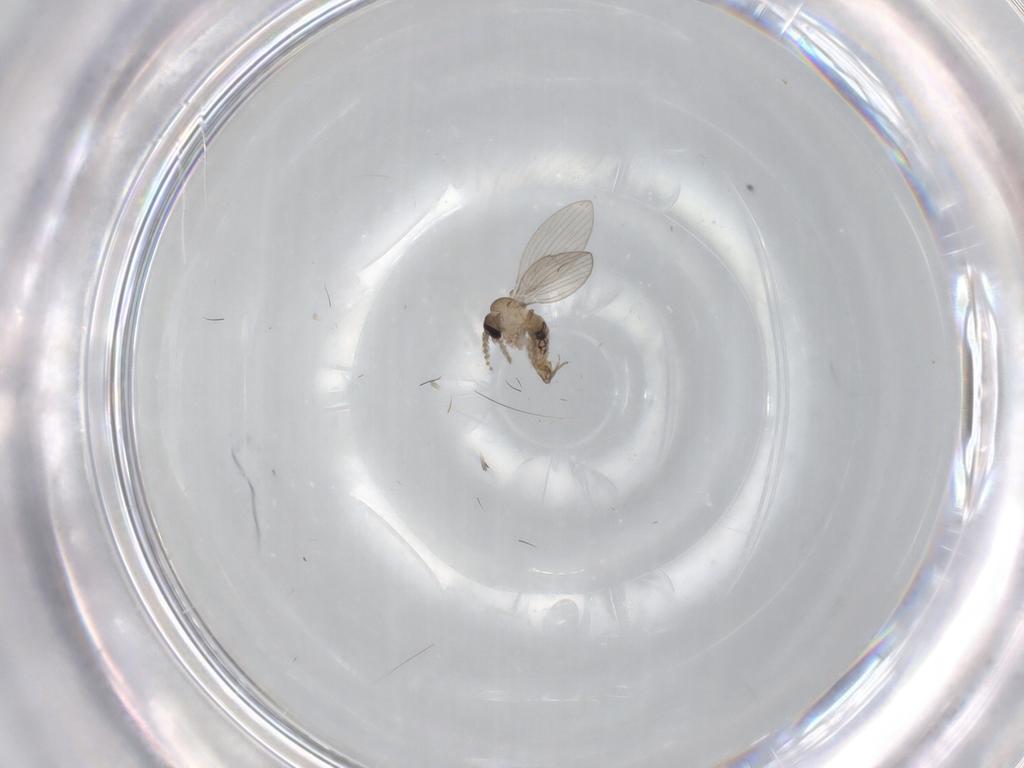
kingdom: Animalia
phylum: Arthropoda
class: Insecta
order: Diptera
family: Psychodidae
